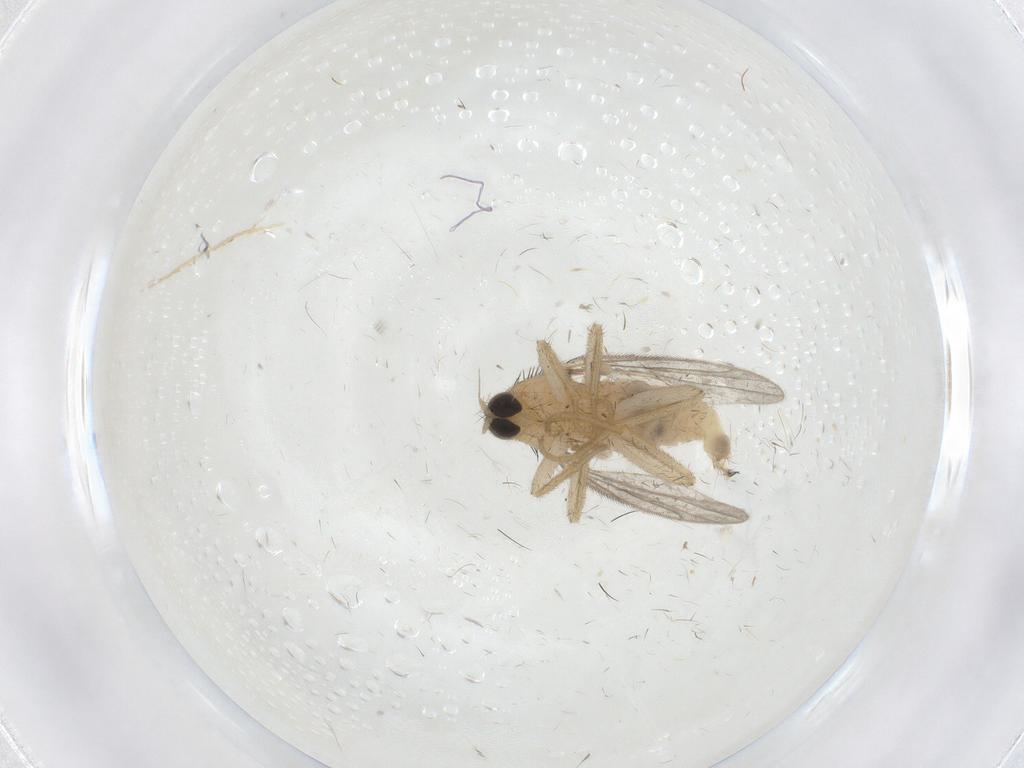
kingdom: Animalia
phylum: Arthropoda
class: Insecta
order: Diptera
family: Hybotidae
